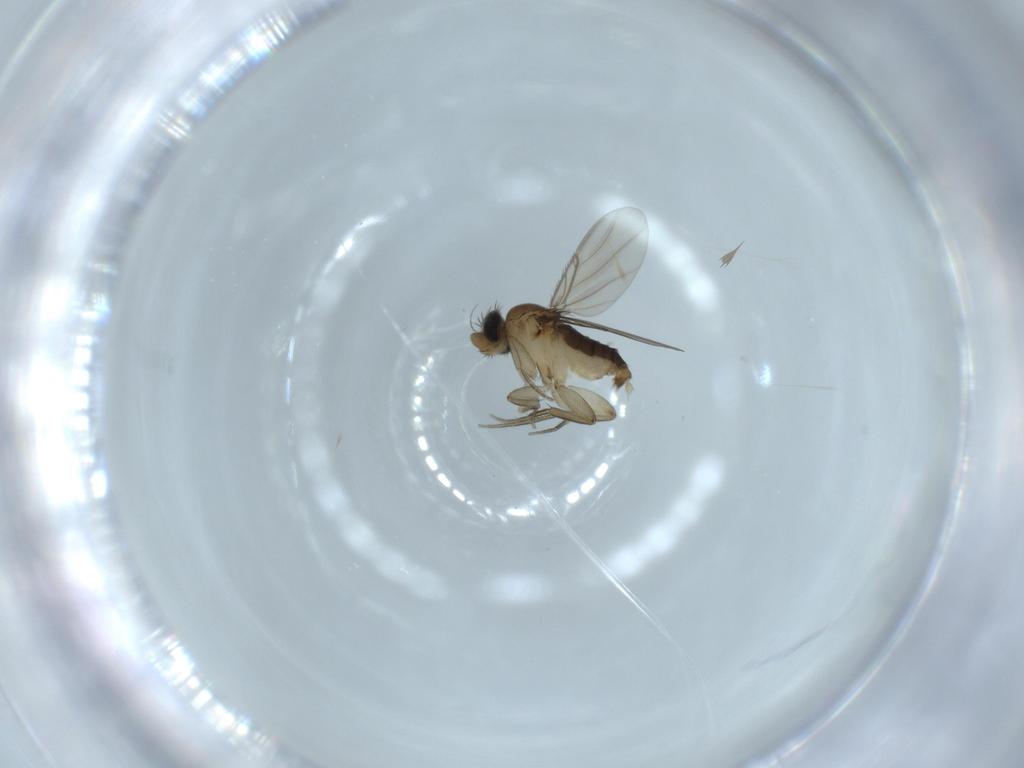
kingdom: Animalia
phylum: Arthropoda
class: Insecta
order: Diptera
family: Phoridae
